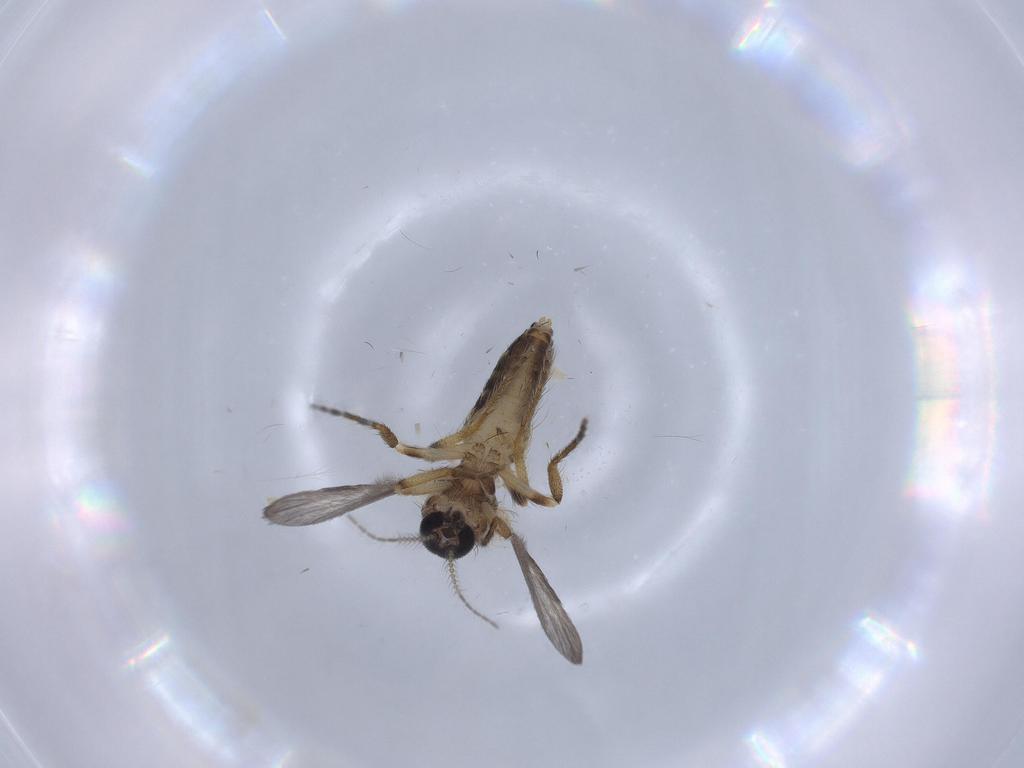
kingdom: Animalia
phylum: Arthropoda
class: Insecta
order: Diptera
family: Ceratopogonidae
